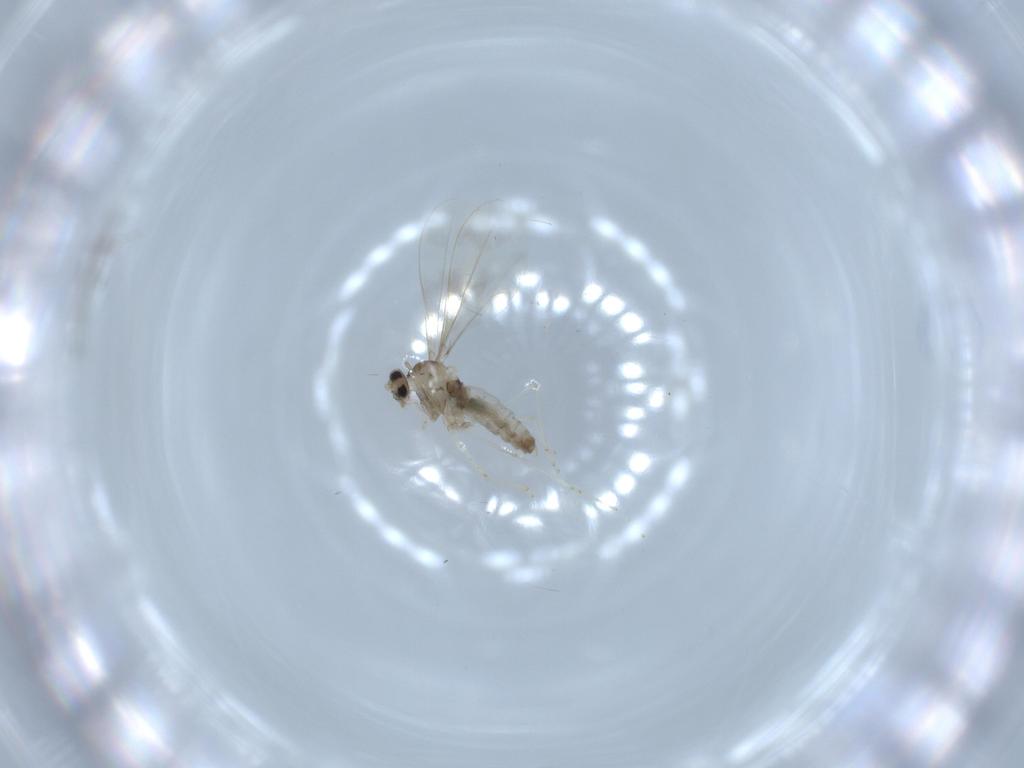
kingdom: Animalia
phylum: Arthropoda
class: Insecta
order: Diptera
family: Cecidomyiidae
